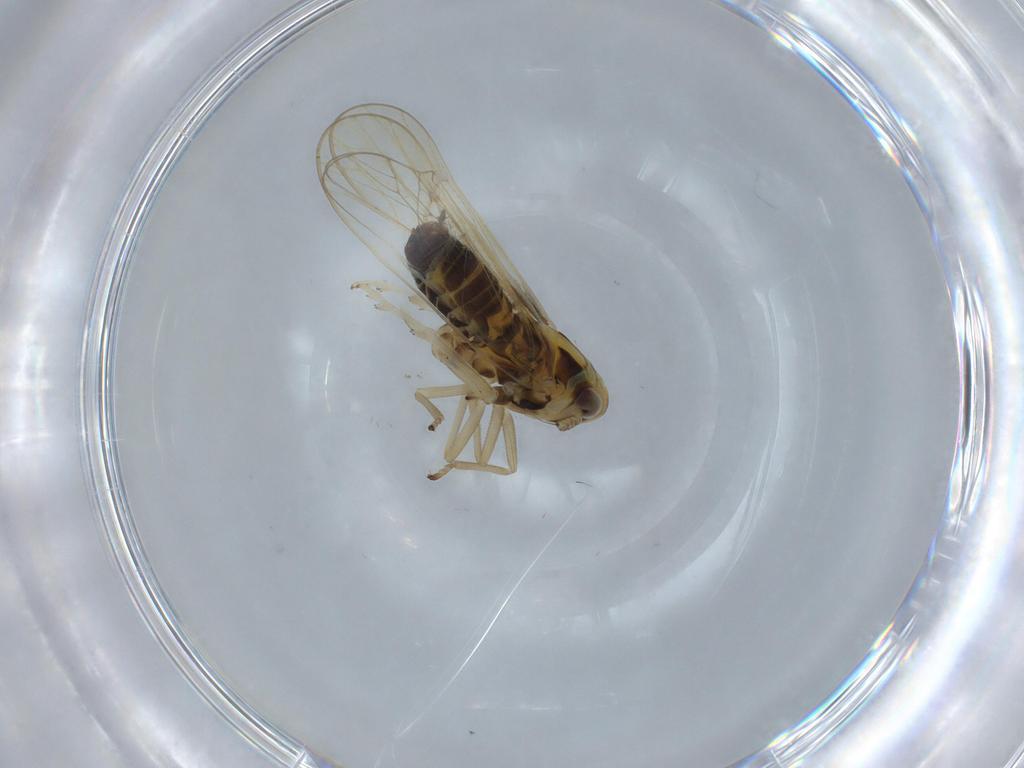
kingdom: Animalia
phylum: Arthropoda
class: Insecta
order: Hemiptera
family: Delphacidae
